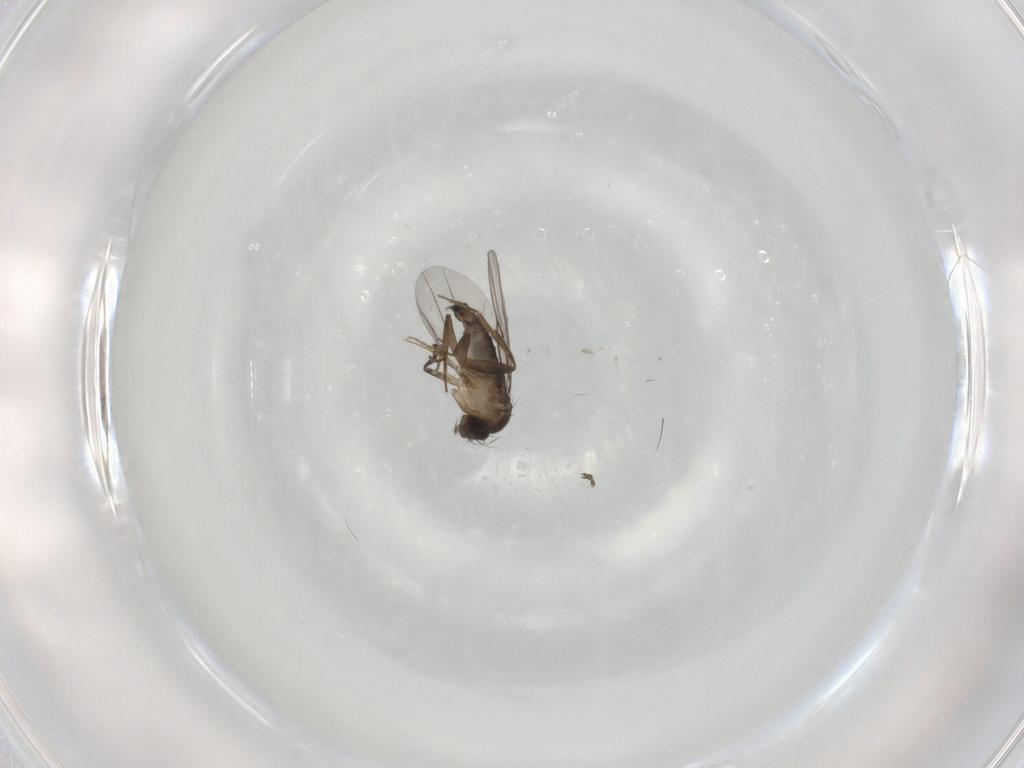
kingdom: Animalia
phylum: Arthropoda
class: Insecta
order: Diptera
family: Phoridae
